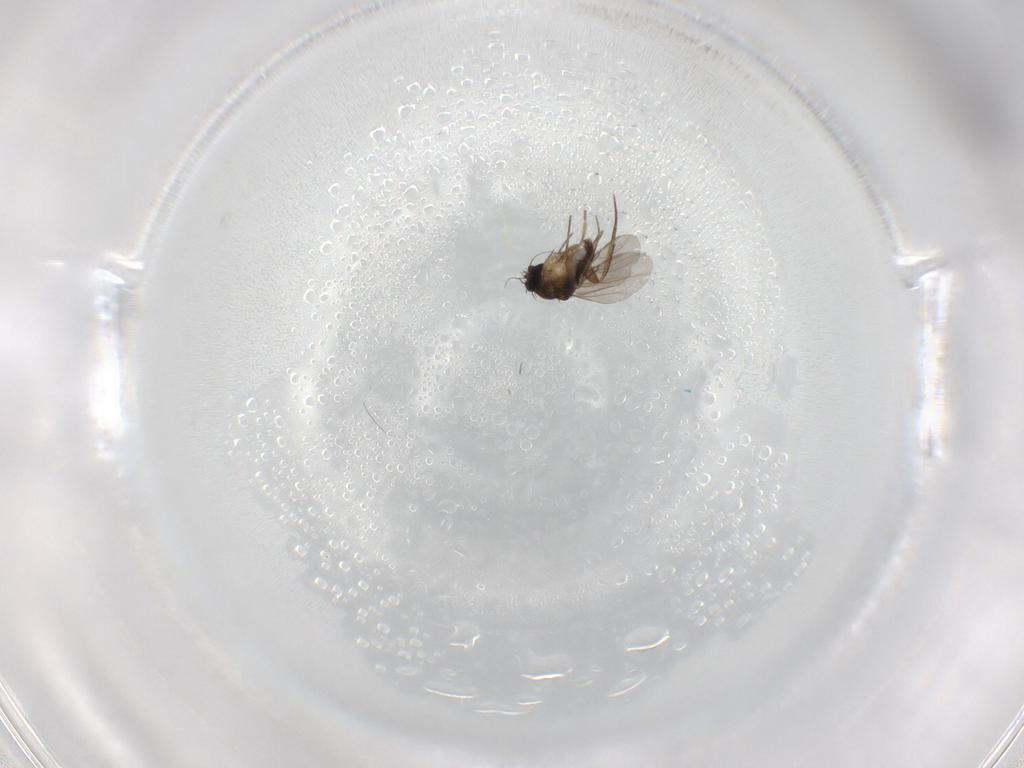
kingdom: Animalia
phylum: Arthropoda
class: Insecta
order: Diptera
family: Phoridae
